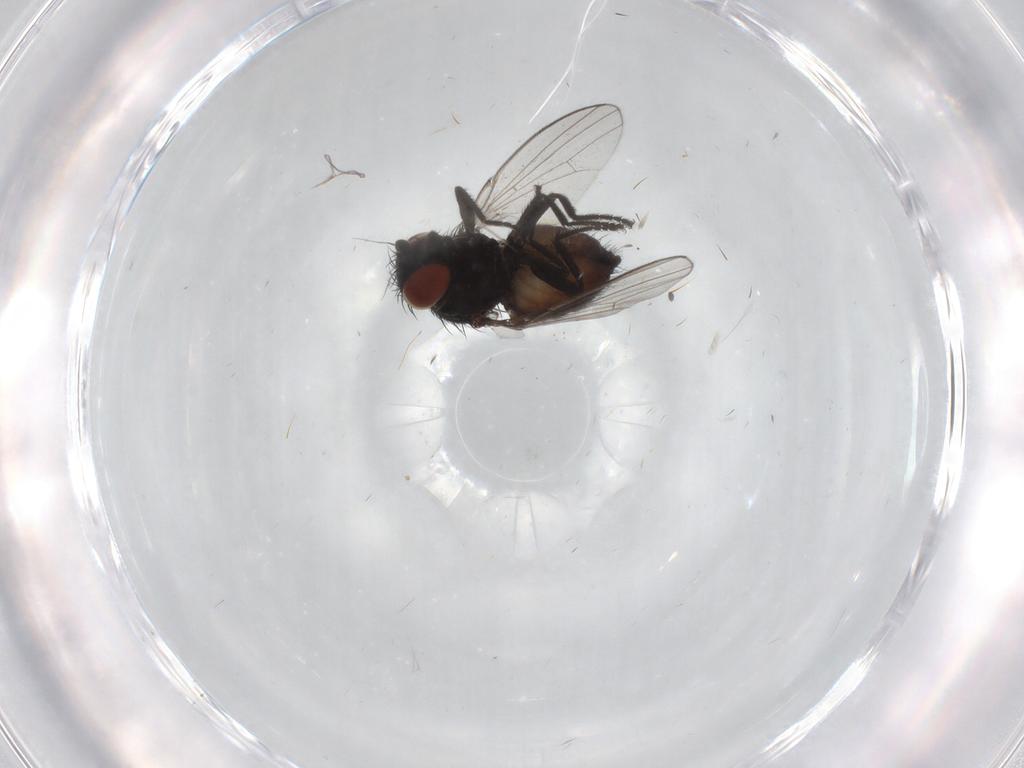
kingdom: Animalia
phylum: Arthropoda
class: Insecta
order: Diptera
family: Milichiidae
